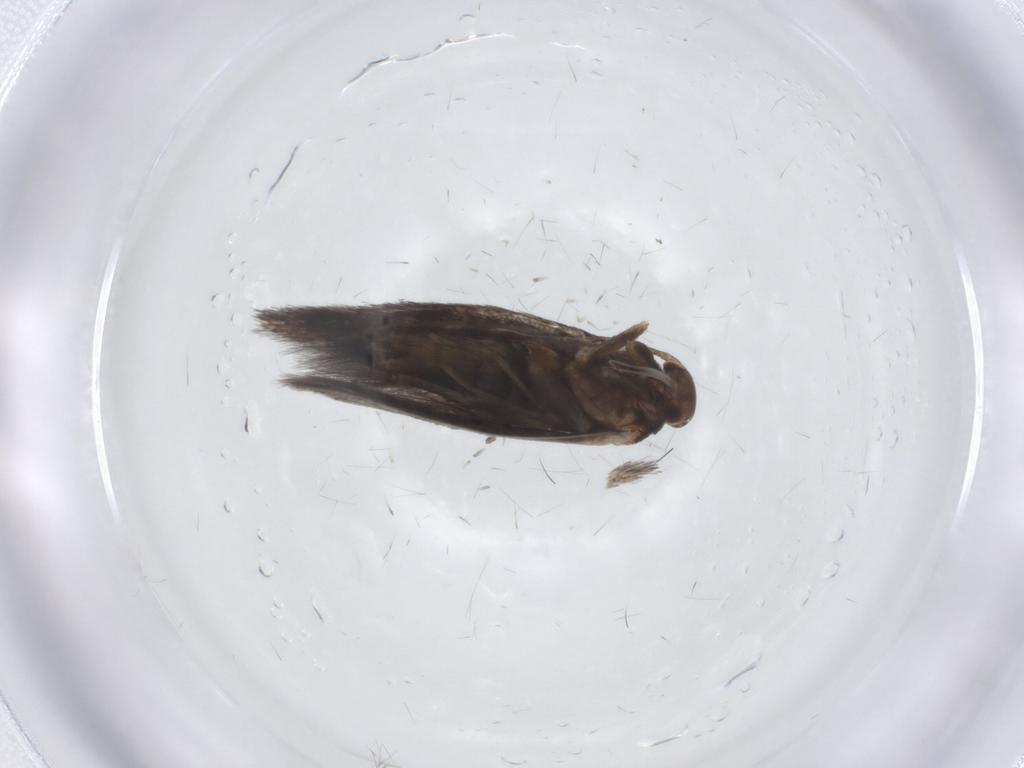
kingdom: Animalia
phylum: Arthropoda
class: Insecta
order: Lepidoptera
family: Elachistidae
